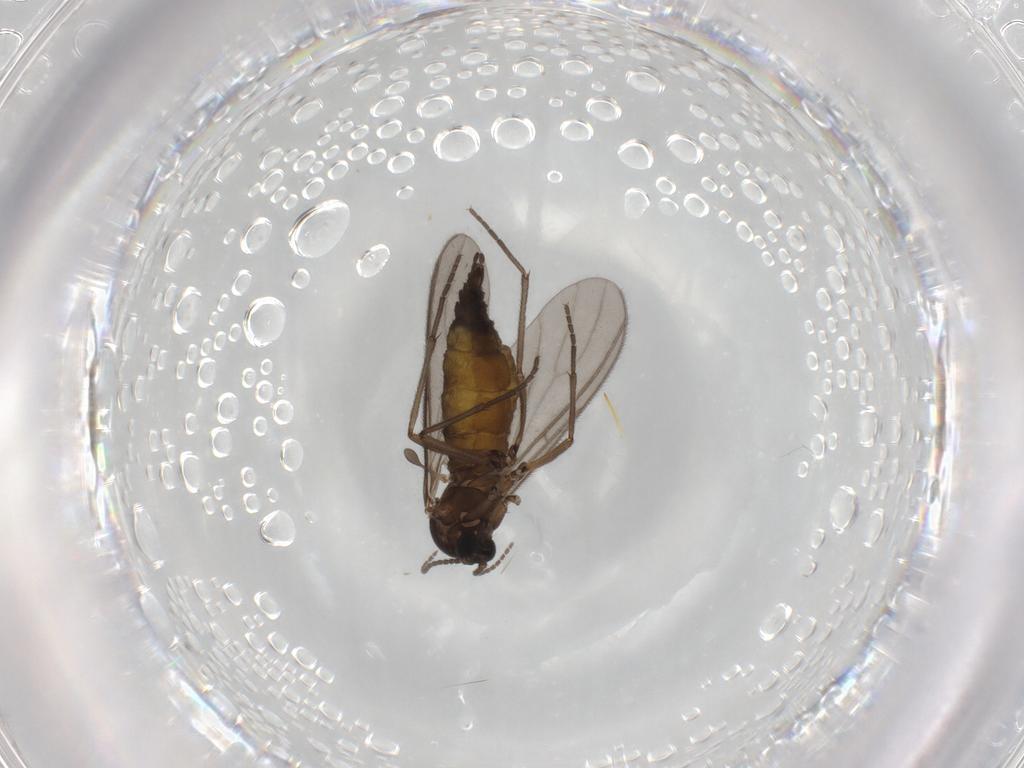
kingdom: Animalia
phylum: Arthropoda
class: Insecta
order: Diptera
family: Sciaridae
